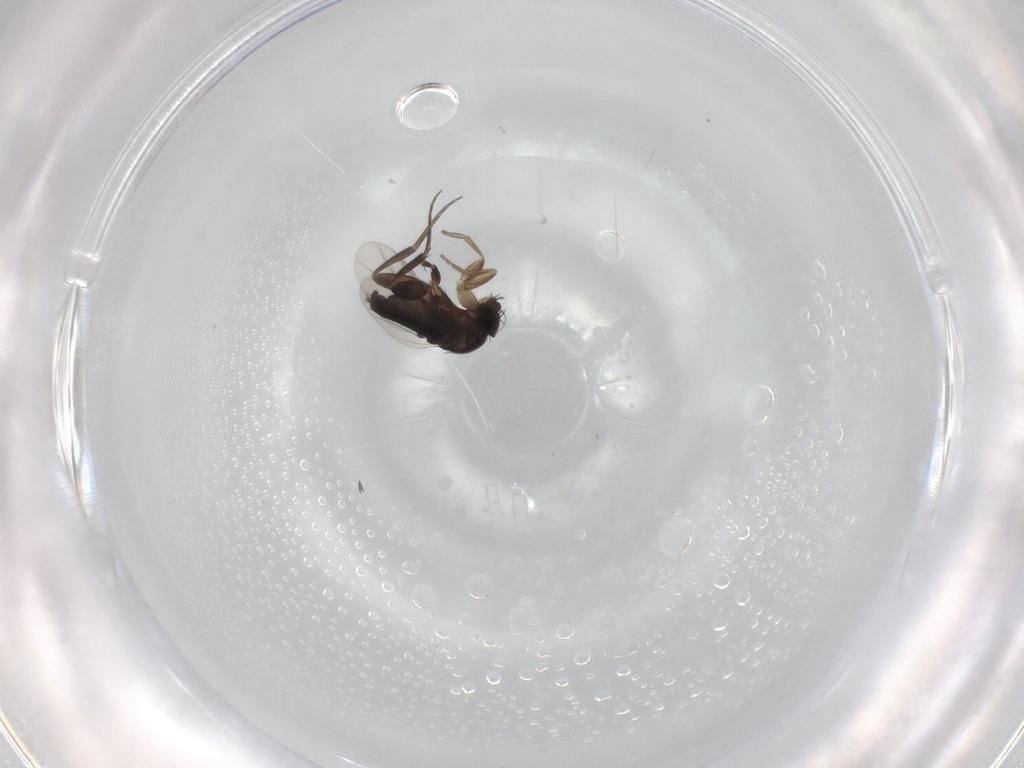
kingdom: Animalia
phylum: Arthropoda
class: Insecta
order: Diptera
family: Phoridae
